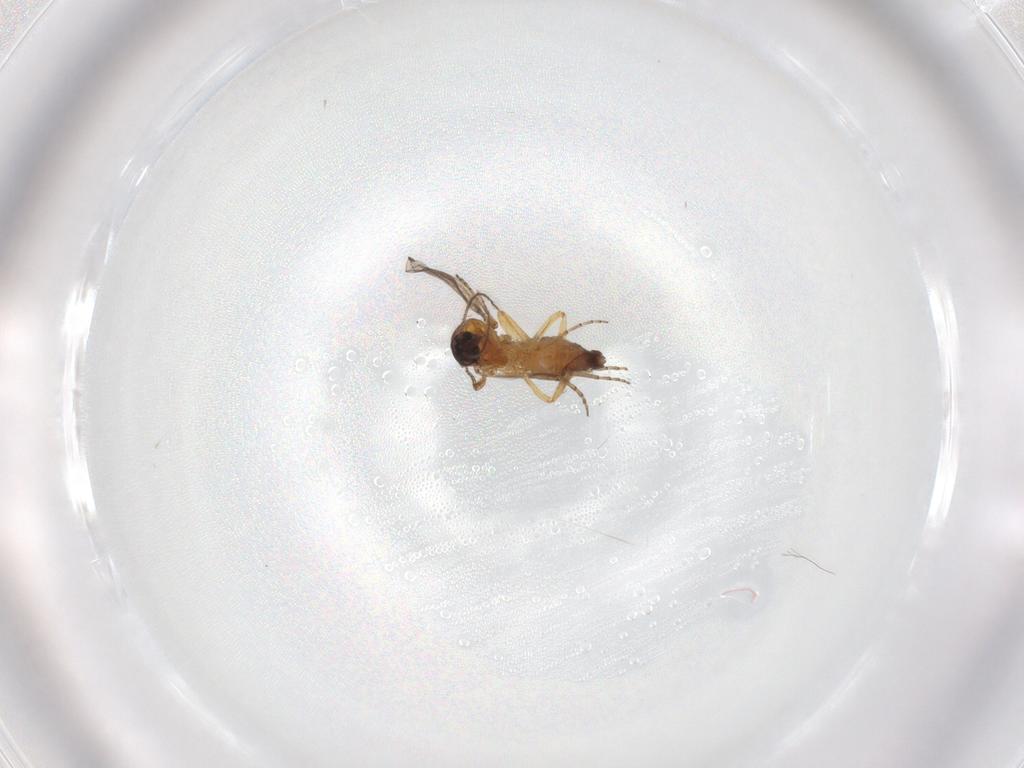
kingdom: Animalia
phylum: Arthropoda
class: Insecta
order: Diptera
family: Ceratopogonidae
